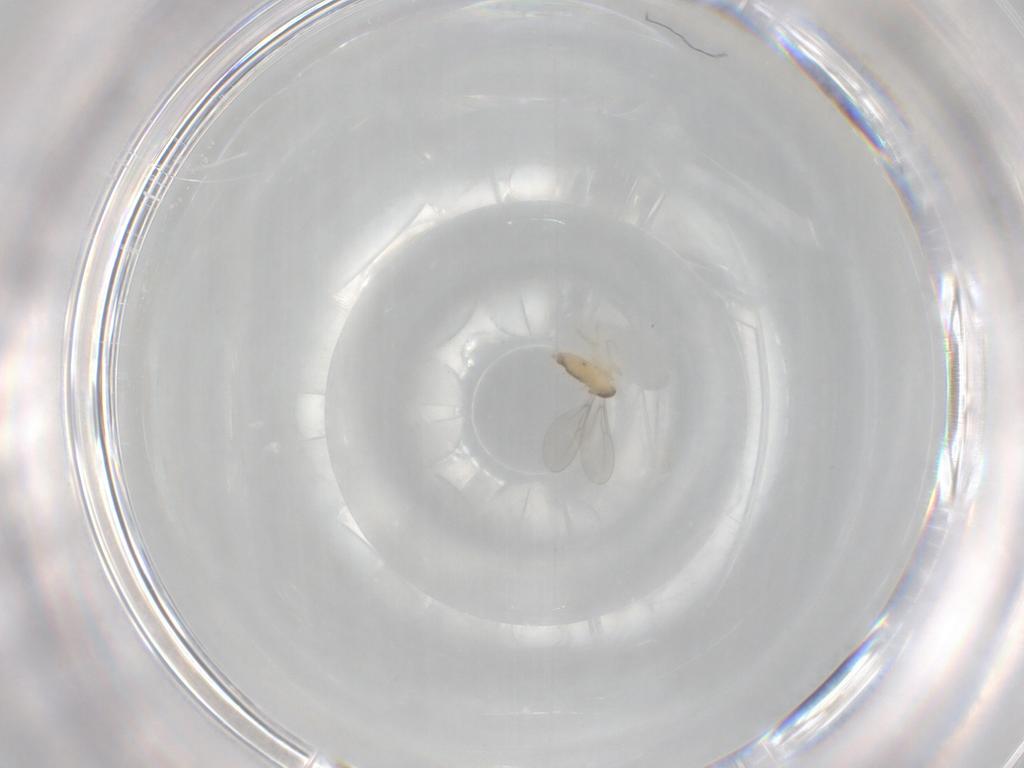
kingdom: Animalia
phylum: Arthropoda
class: Insecta
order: Diptera
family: Cecidomyiidae
